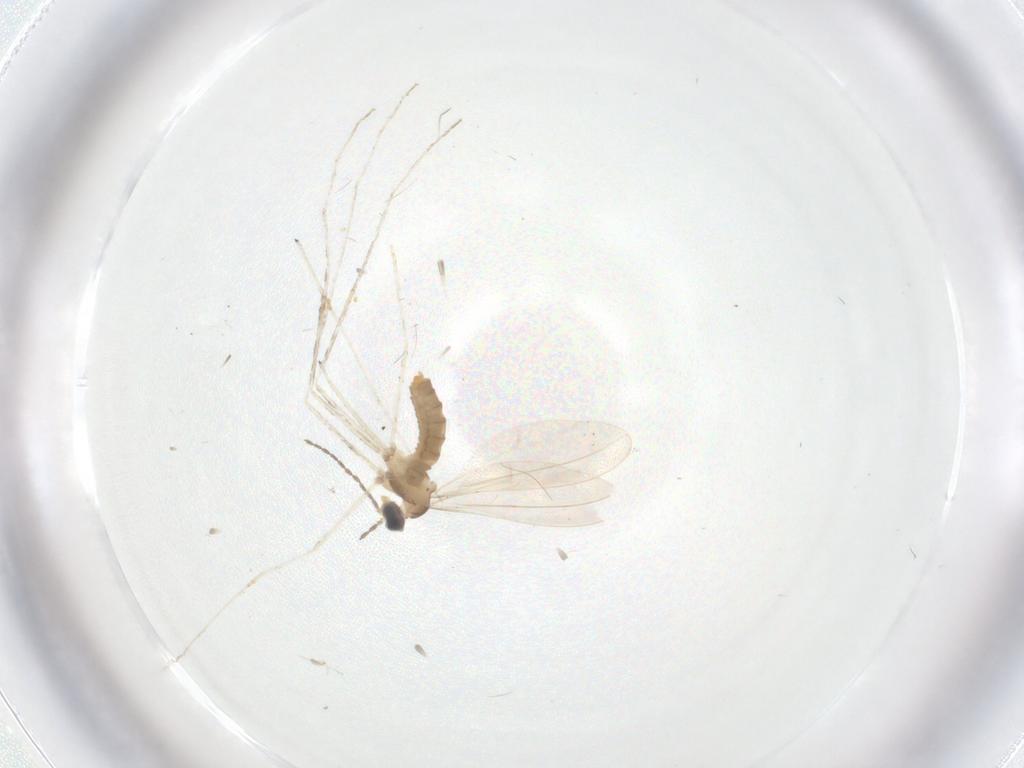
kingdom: Animalia
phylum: Arthropoda
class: Insecta
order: Diptera
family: Cecidomyiidae
